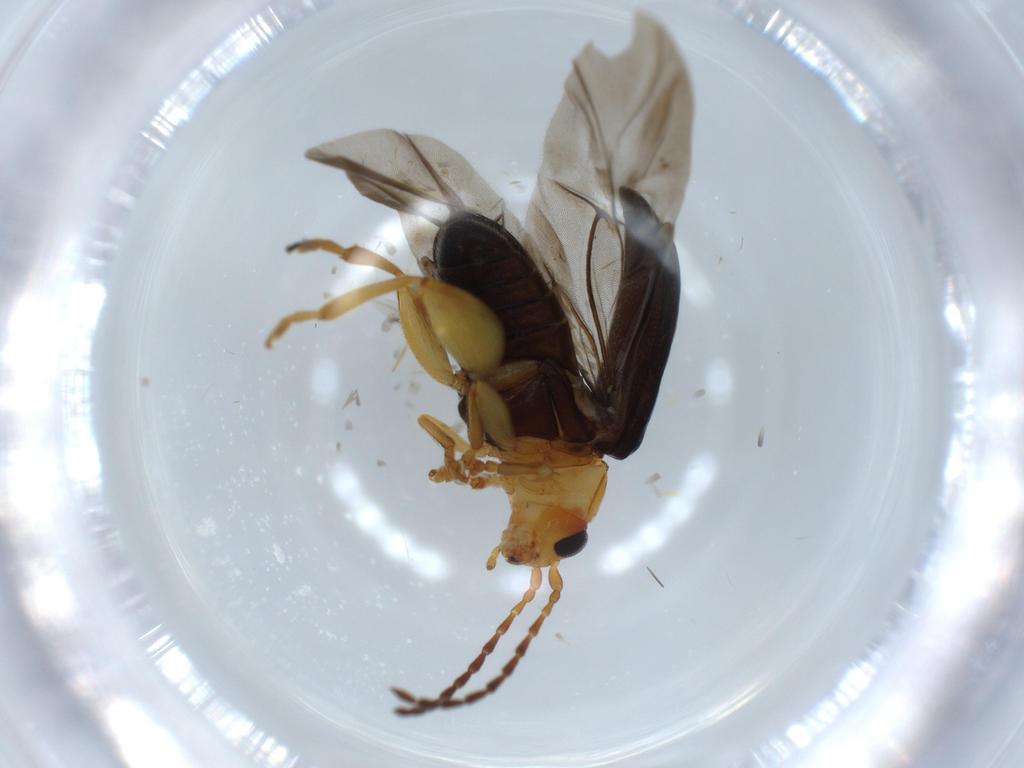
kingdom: Animalia
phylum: Arthropoda
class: Insecta
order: Coleoptera
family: Chrysomelidae
